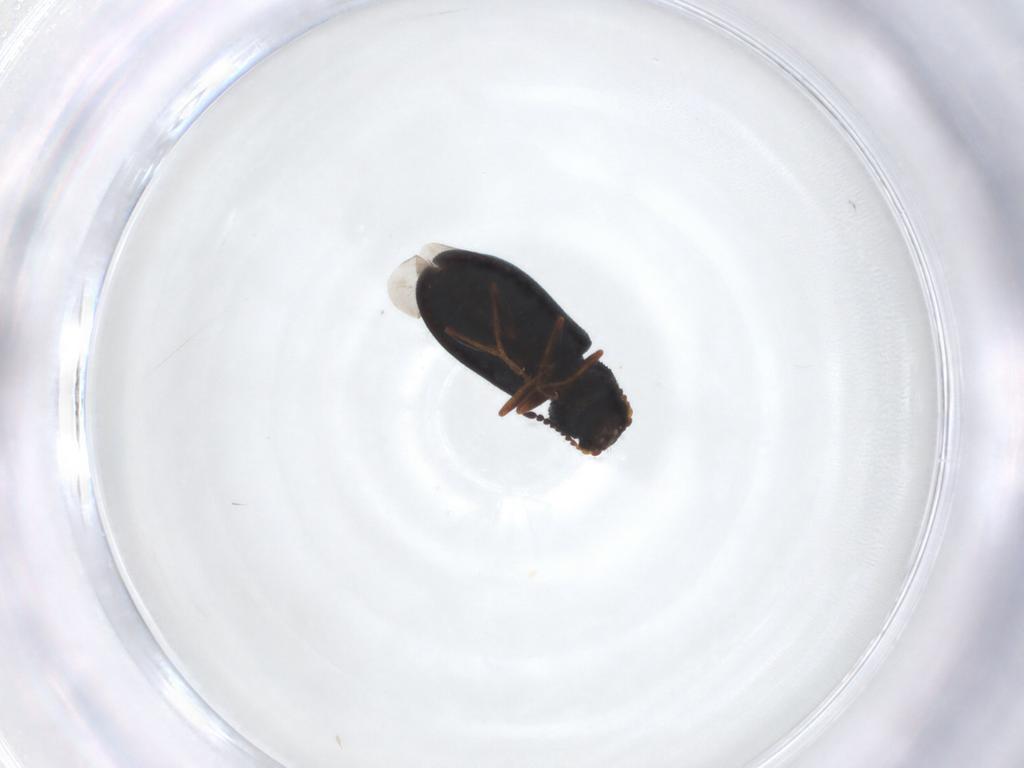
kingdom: Animalia
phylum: Arthropoda
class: Insecta
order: Coleoptera
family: Melyridae
